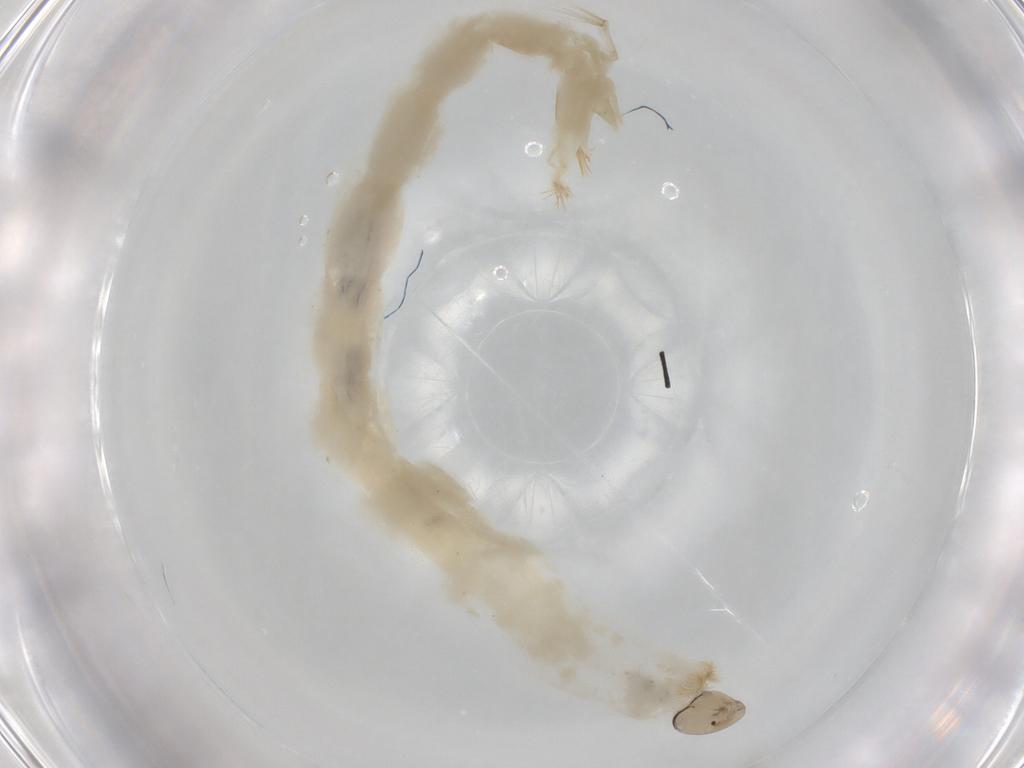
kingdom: Animalia
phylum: Arthropoda
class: Insecta
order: Diptera
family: Chironomidae
